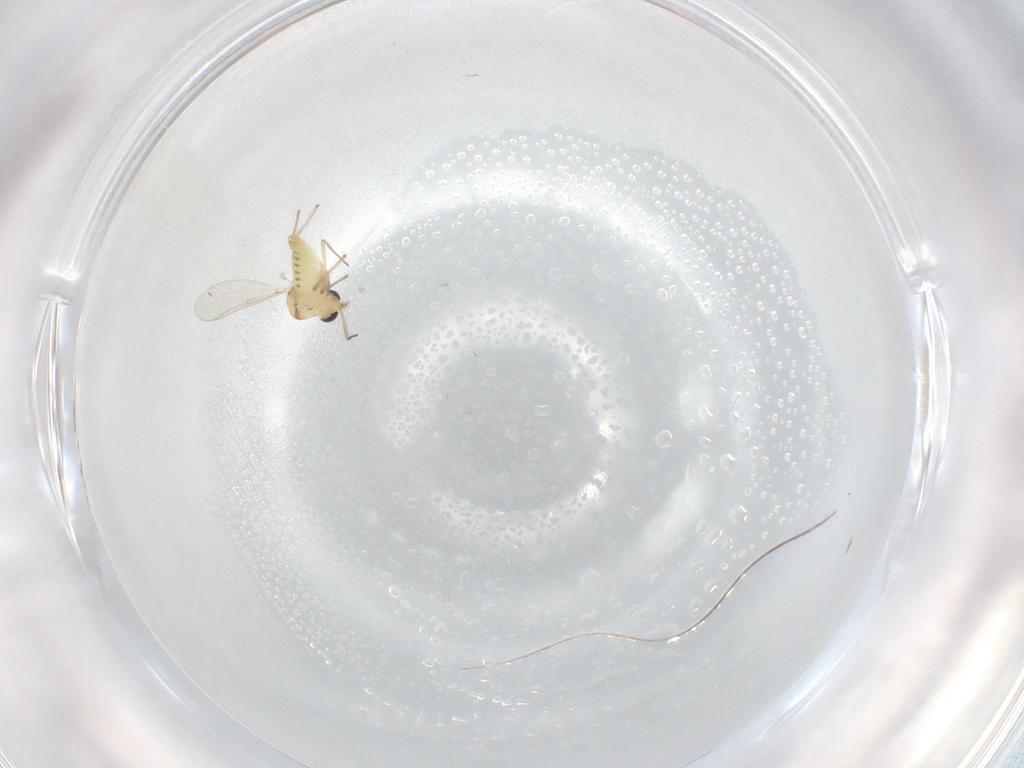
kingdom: Animalia
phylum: Arthropoda
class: Insecta
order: Diptera
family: Chironomidae
